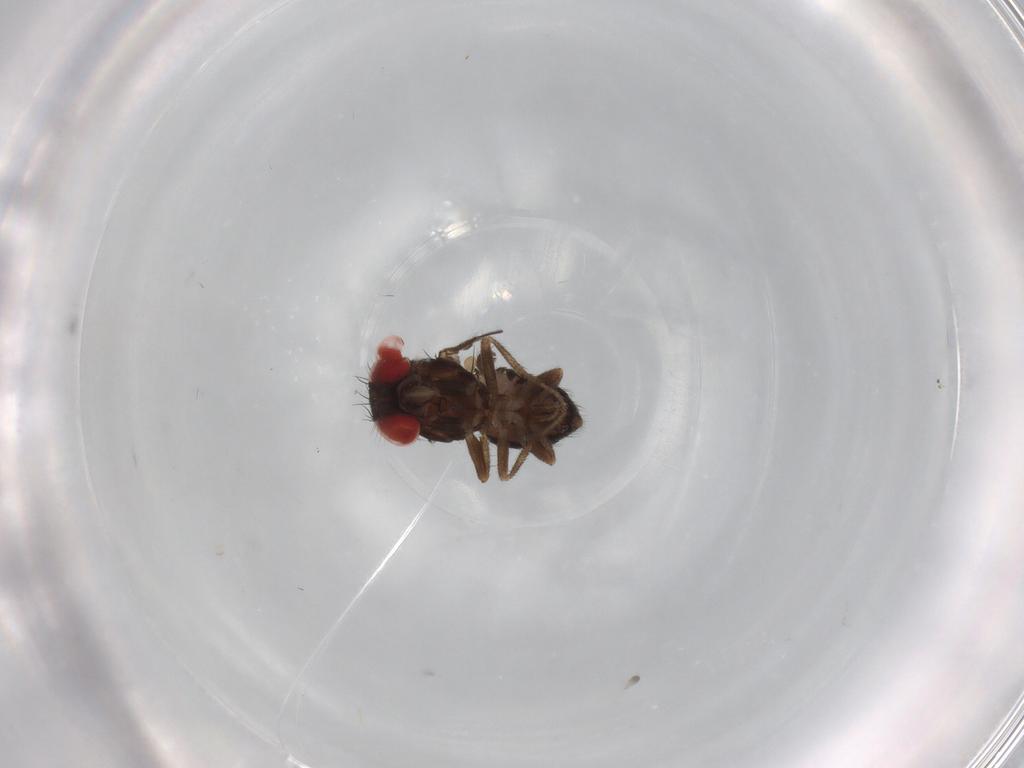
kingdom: Animalia
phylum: Arthropoda
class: Insecta
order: Diptera
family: Drosophilidae
